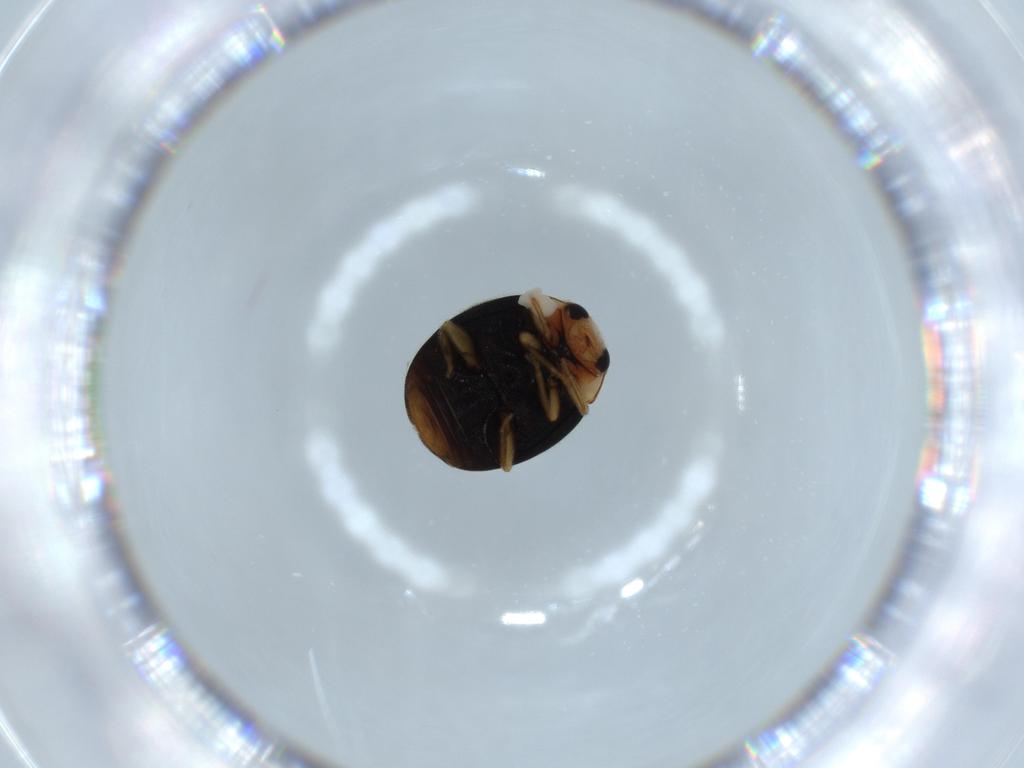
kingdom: Animalia
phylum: Arthropoda
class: Insecta
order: Coleoptera
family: Coccinellidae
